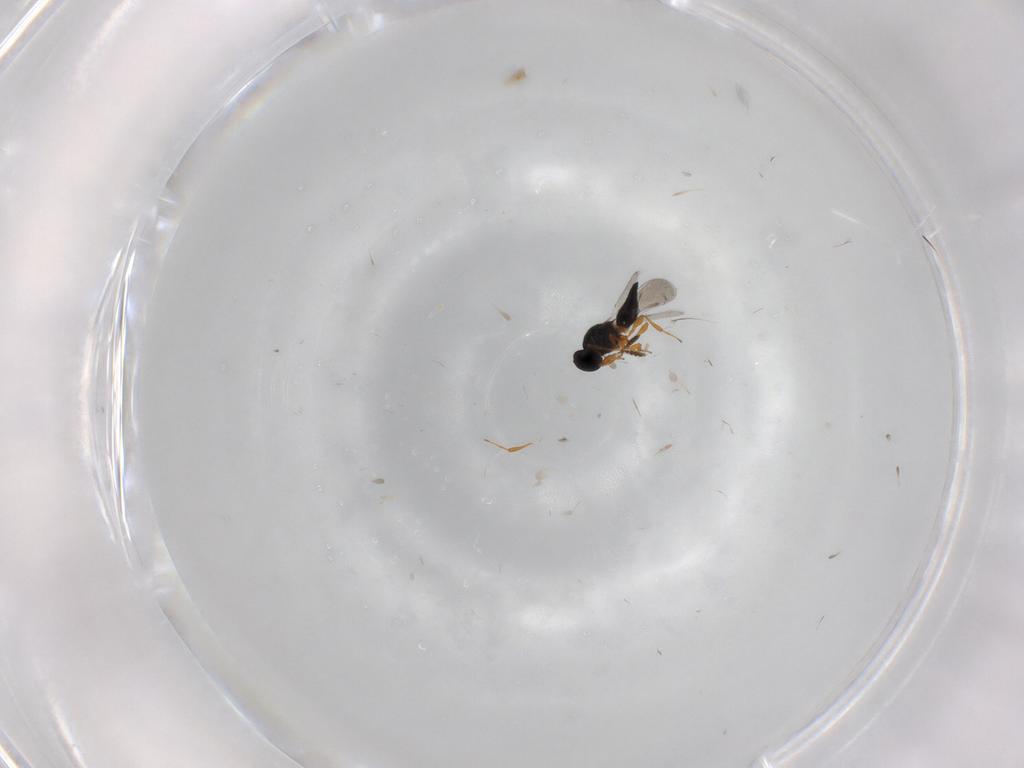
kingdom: Animalia
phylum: Arthropoda
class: Insecta
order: Hymenoptera
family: Platygastridae
